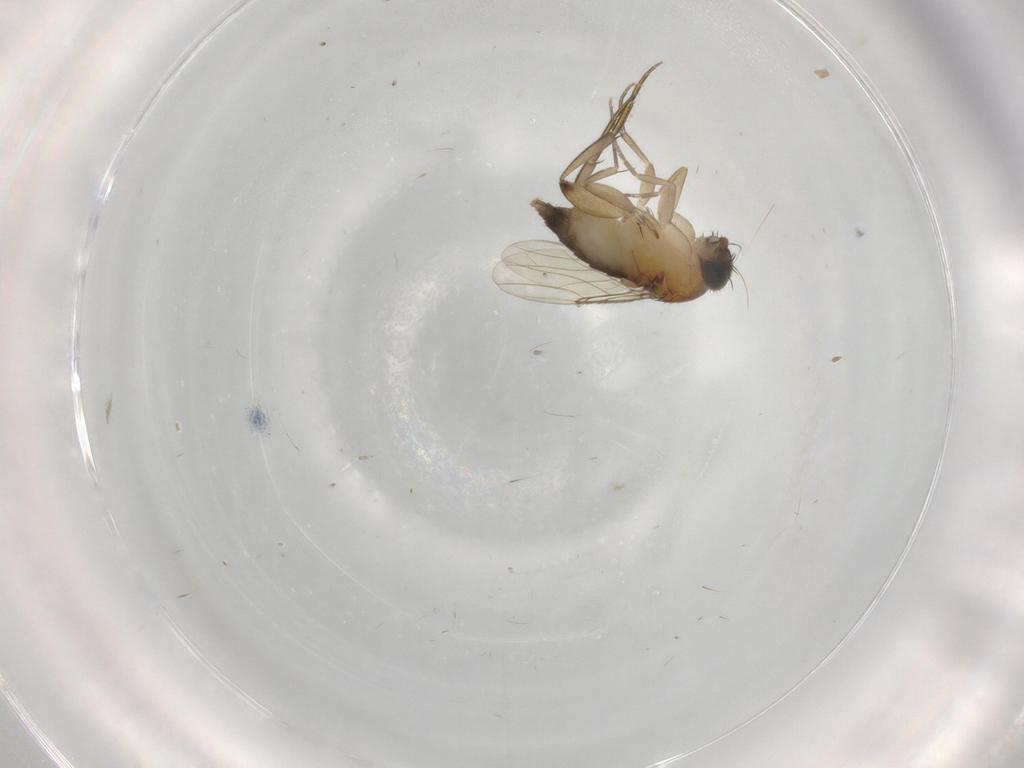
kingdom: Animalia
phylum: Arthropoda
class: Insecta
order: Diptera
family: Phoridae
